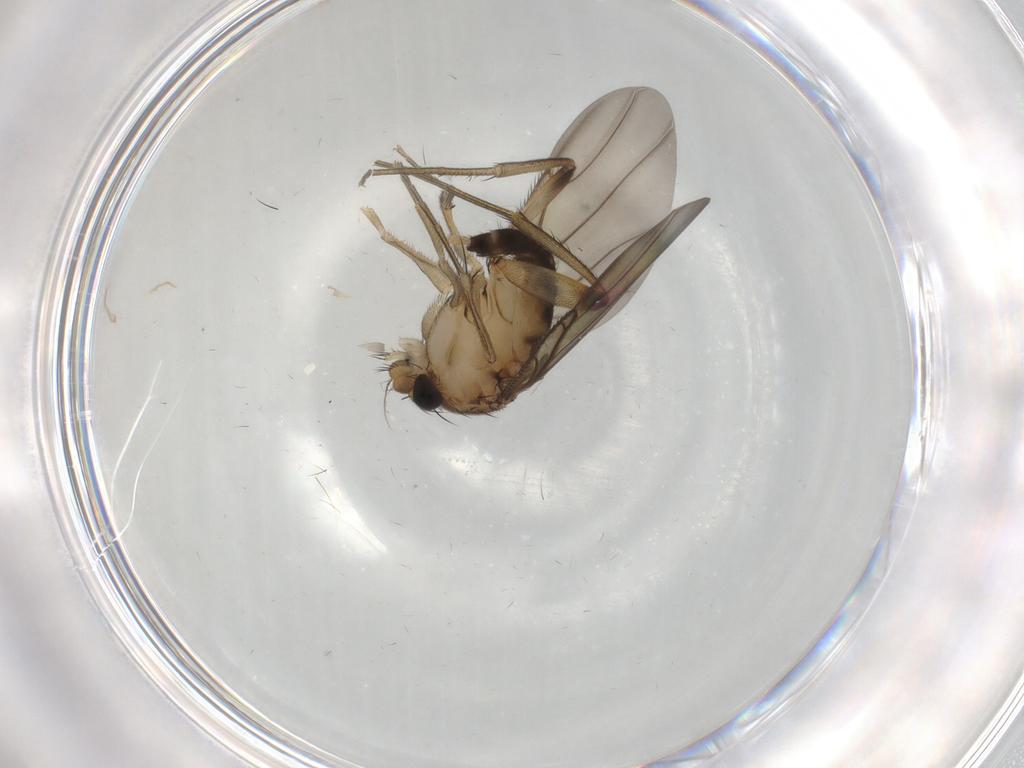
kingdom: Animalia
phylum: Arthropoda
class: Insecta
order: Diptera
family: Phoridae
